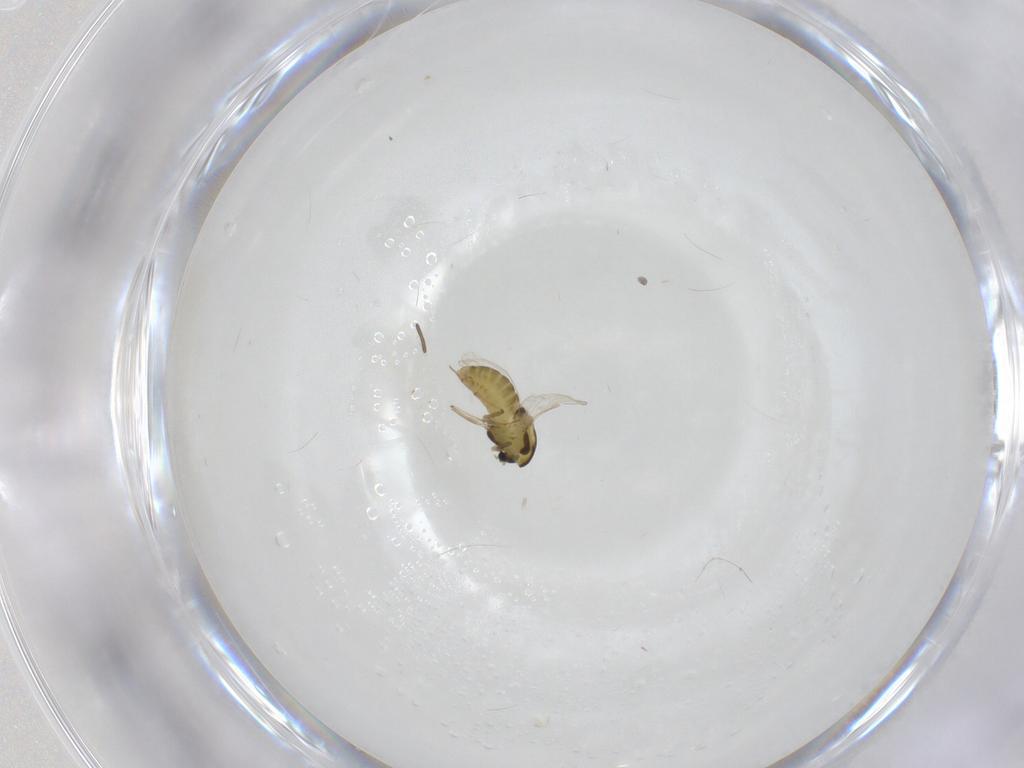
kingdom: Animalia
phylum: Arthropoda
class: Insecta
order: Diptera
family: Chironomidae
